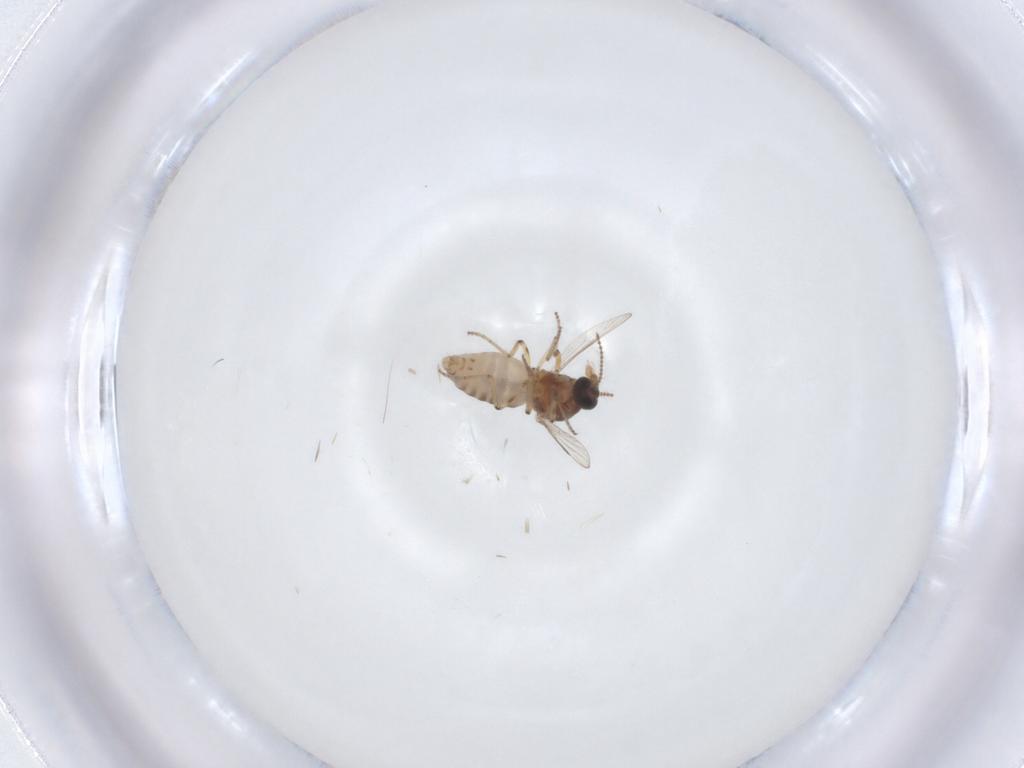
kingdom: Animalia
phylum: Arthropoda
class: Insecta
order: Diptera
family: Ceratopogonidae
